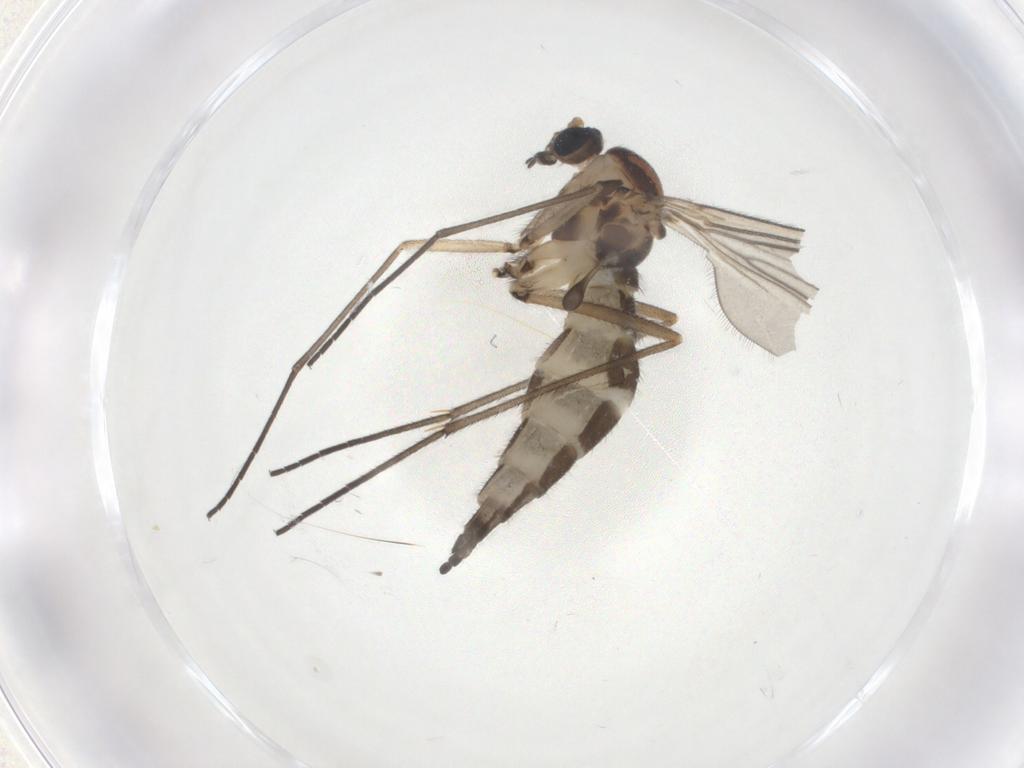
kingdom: Animalia
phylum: Arthropoda
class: Insecta
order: Diptera
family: Sciaridae
